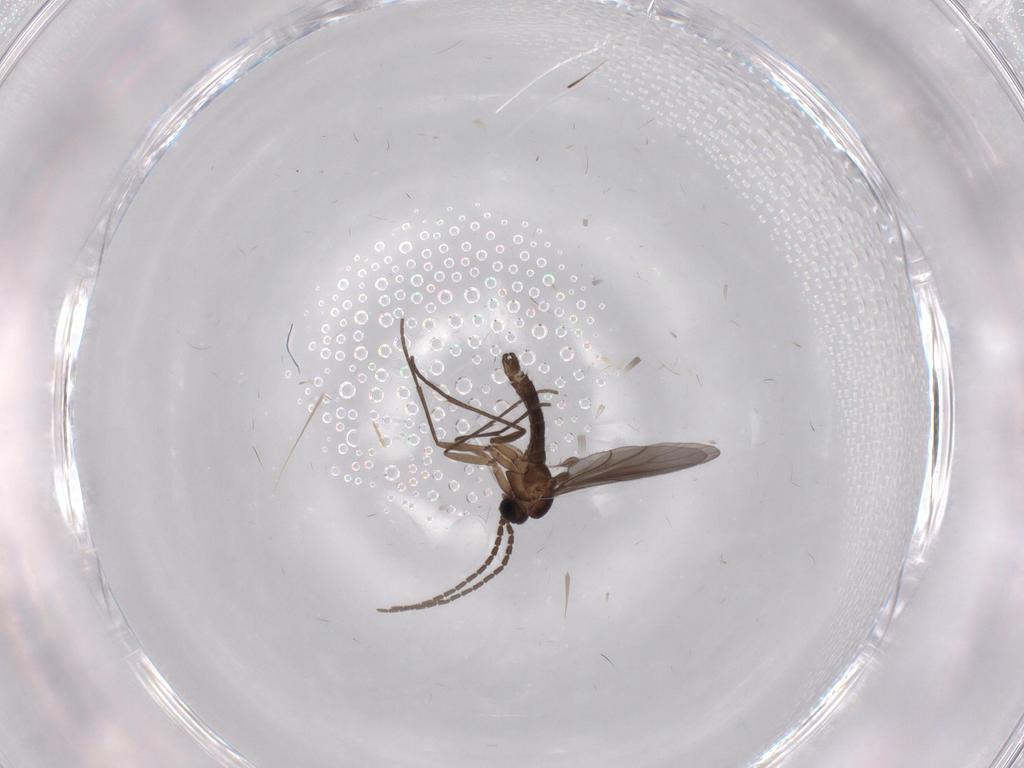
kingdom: Animalia
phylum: Arthropoda
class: Insecta
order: Diptera
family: Sciaridae
